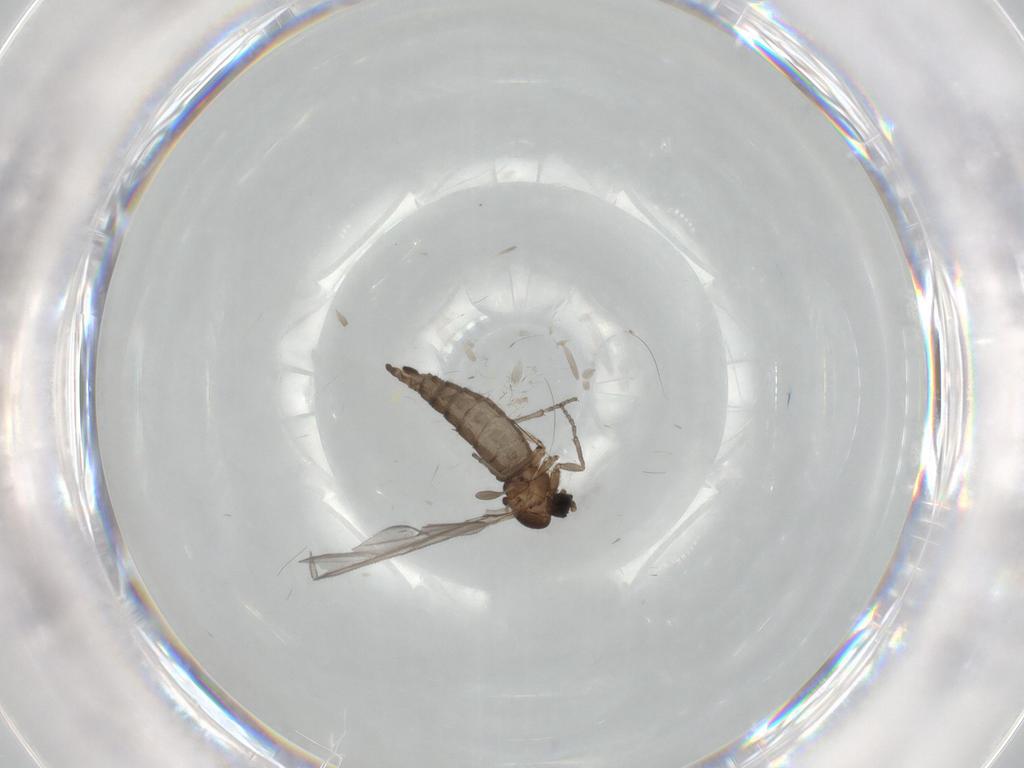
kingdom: Animalia
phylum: Arthropoda
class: Insecta
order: Diptera
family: Sciaridae
